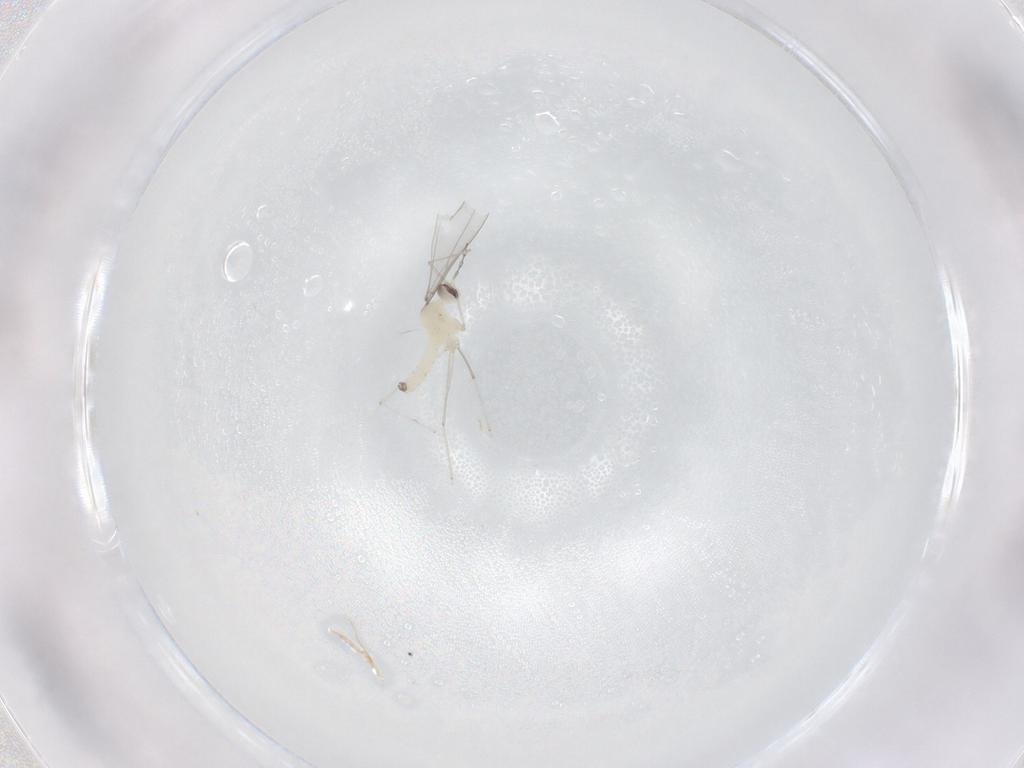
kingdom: Animalia
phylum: Arthropoda
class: Insecta
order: Diptera
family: Cecidomyiidae
